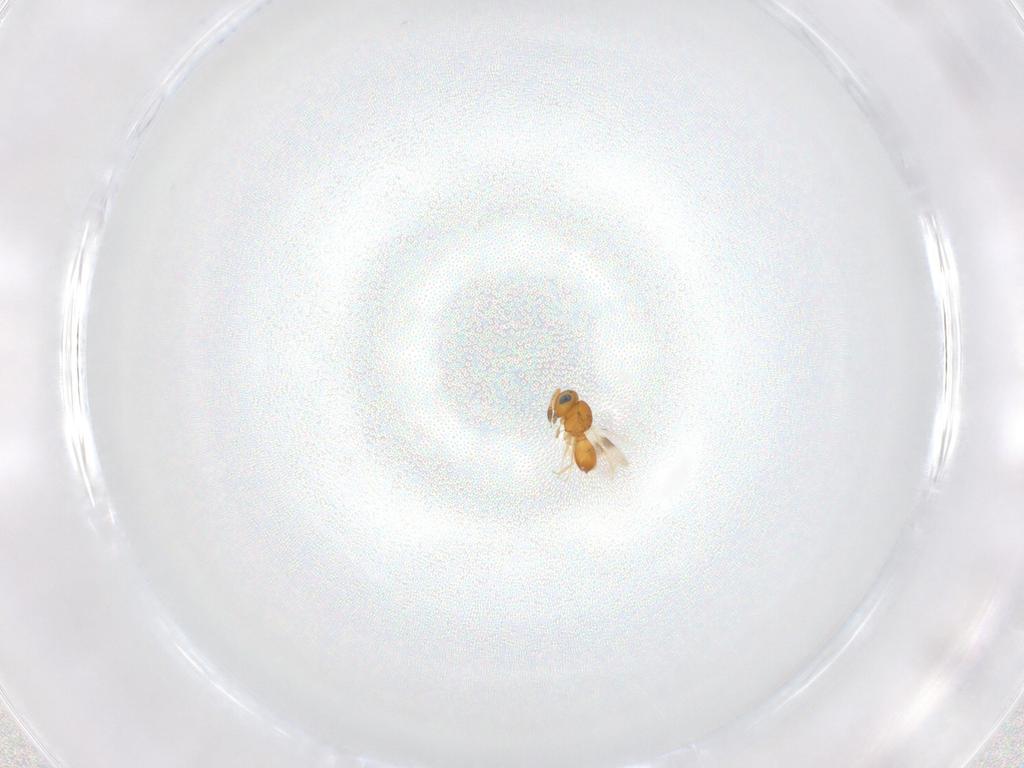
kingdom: Animalia
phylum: Arthropoda
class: Insecta
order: Hymenoptera
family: Scelionidae
